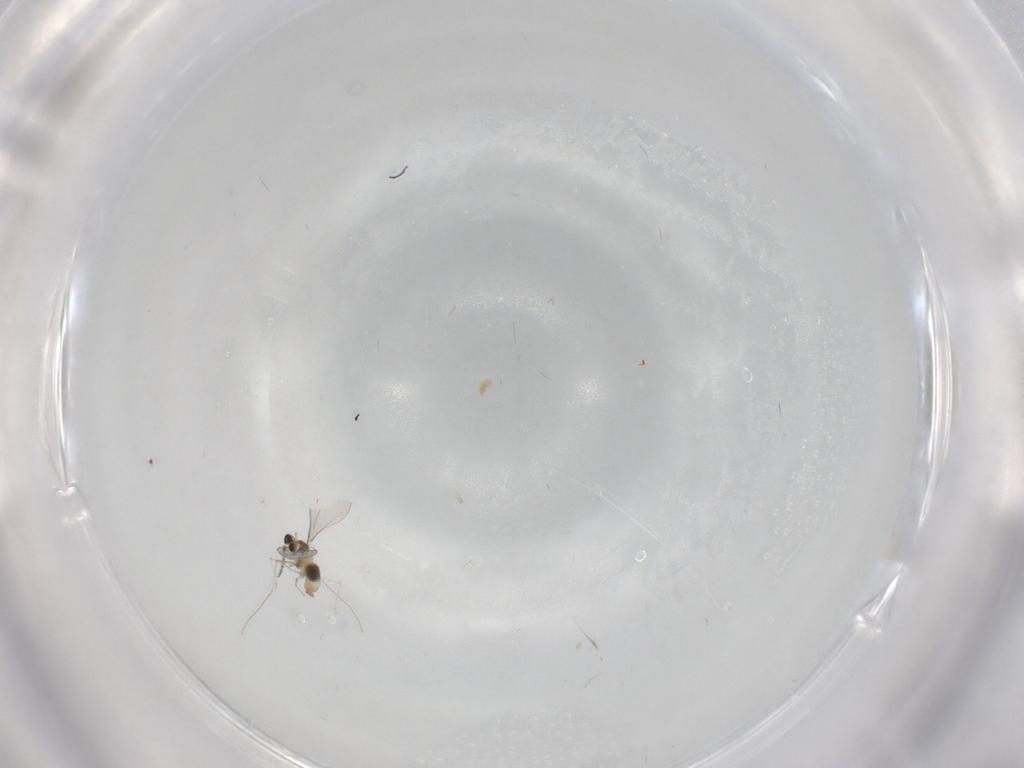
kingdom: Animalia
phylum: Arthropoda
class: Insecta
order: Diptera
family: Cecidomyiidae
